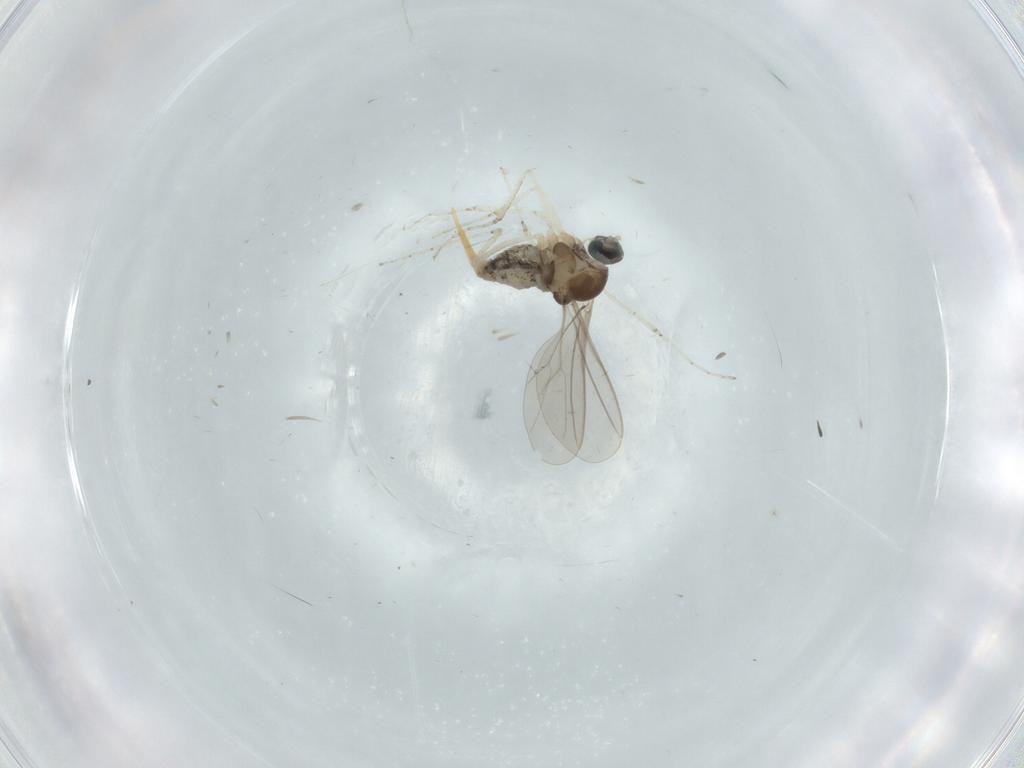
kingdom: Animalia
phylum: Arthropoda
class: Insecta
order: Diptera
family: Cecidomyiidae
